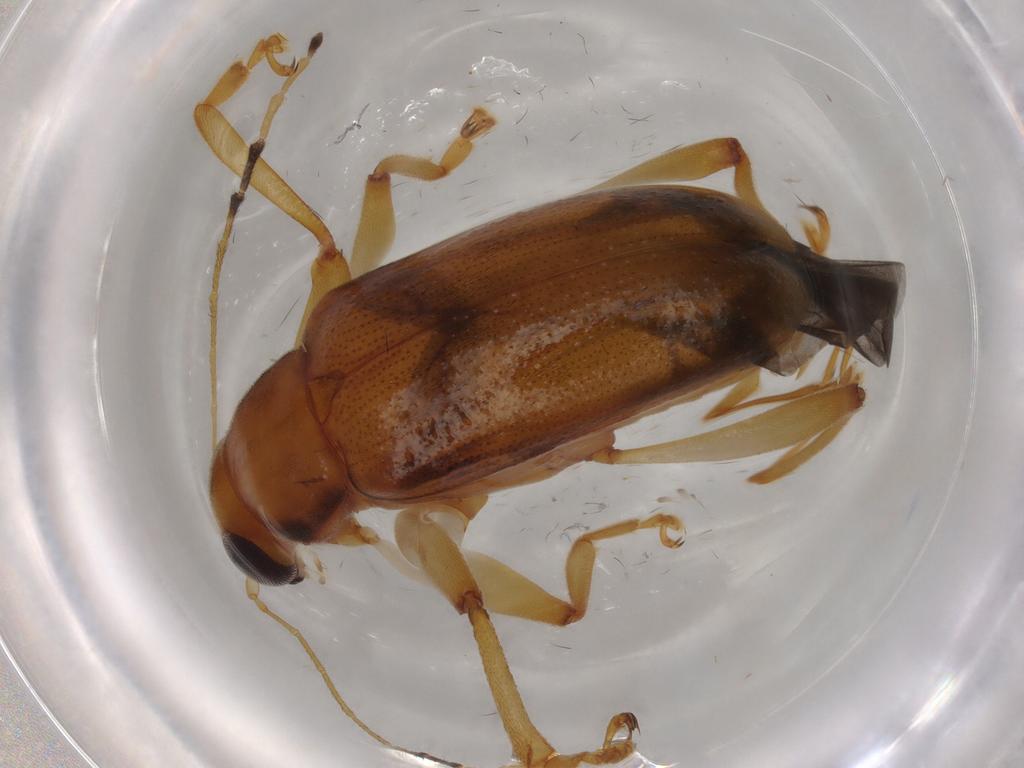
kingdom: Animalia
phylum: Arthropoda
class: Insecta
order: Coleoptera
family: Chrysomelidae
